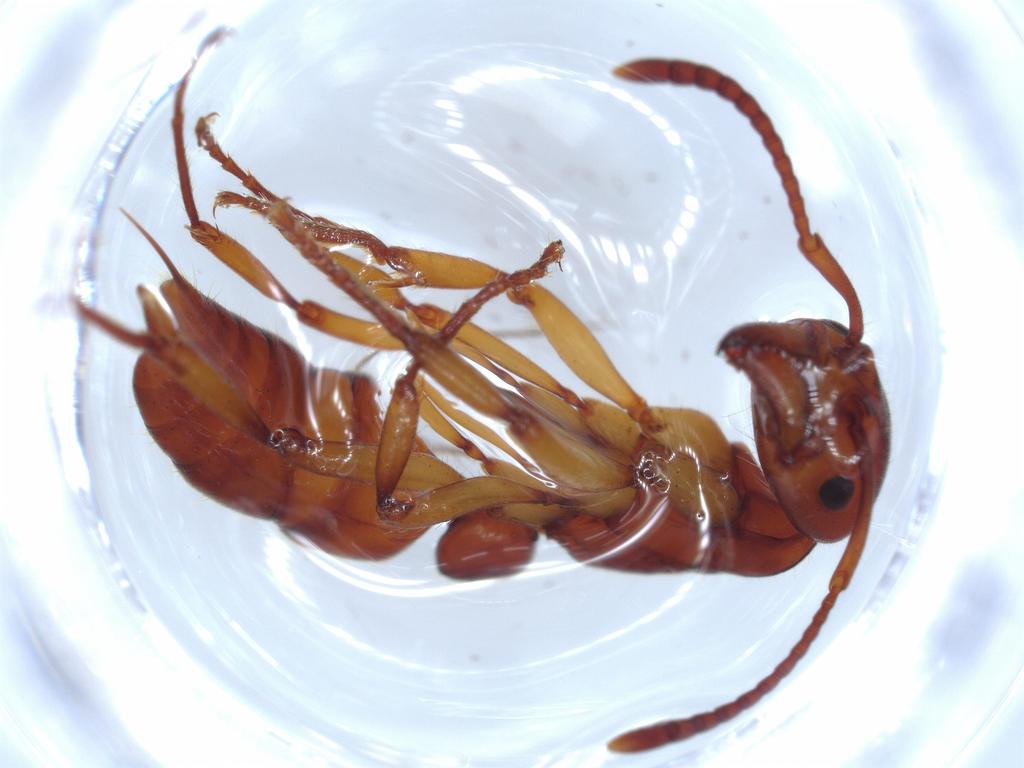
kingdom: Animalia
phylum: Arthropoda
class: Insecta
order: Hymenoptera
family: Formicidae
